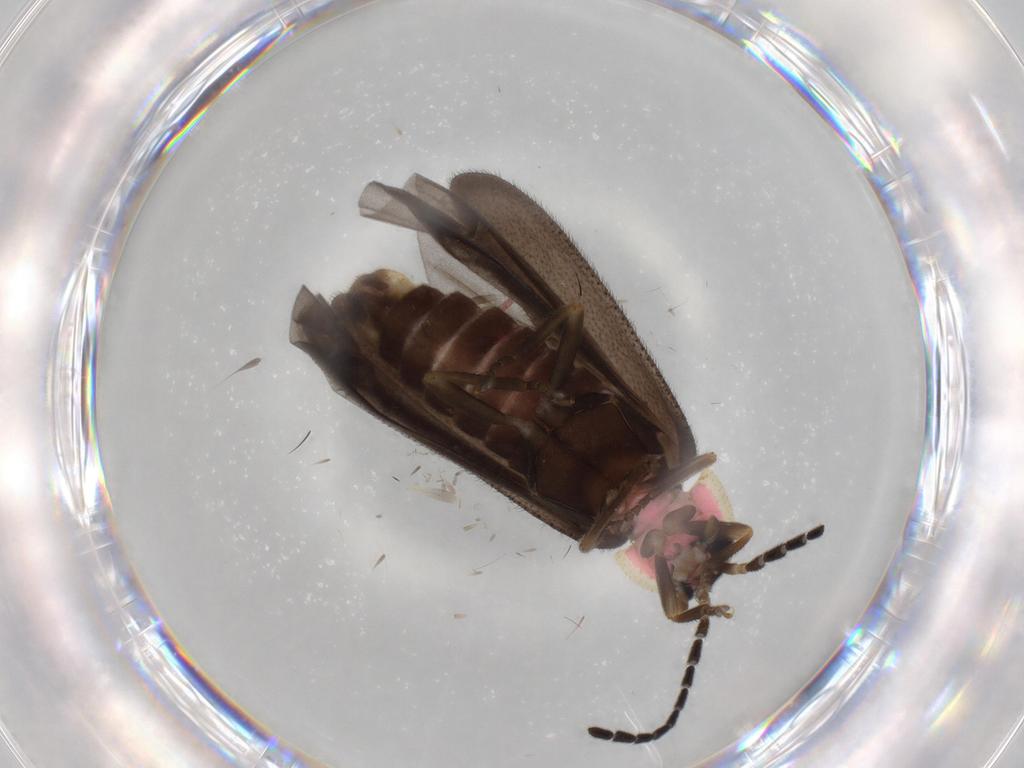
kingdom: Animalia
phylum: Arthropoda
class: Insecta
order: Coleoptera
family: Lampyridae
